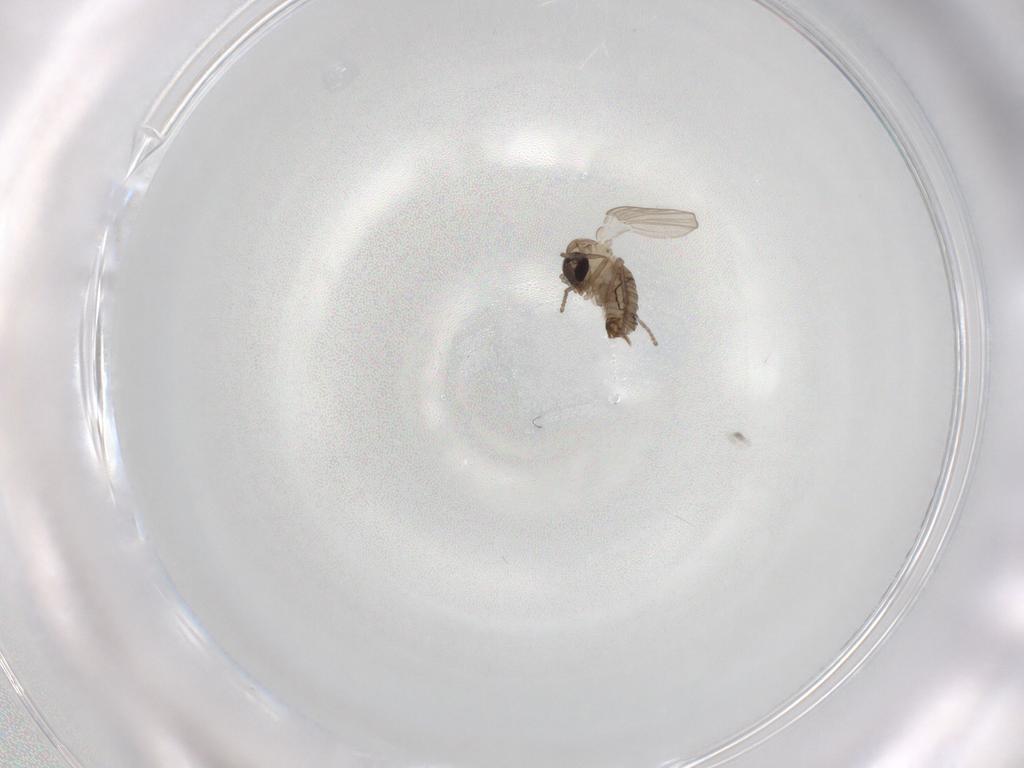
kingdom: Animalia
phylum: Arthropoda
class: Insecta
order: Diptera
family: Psychodidae
